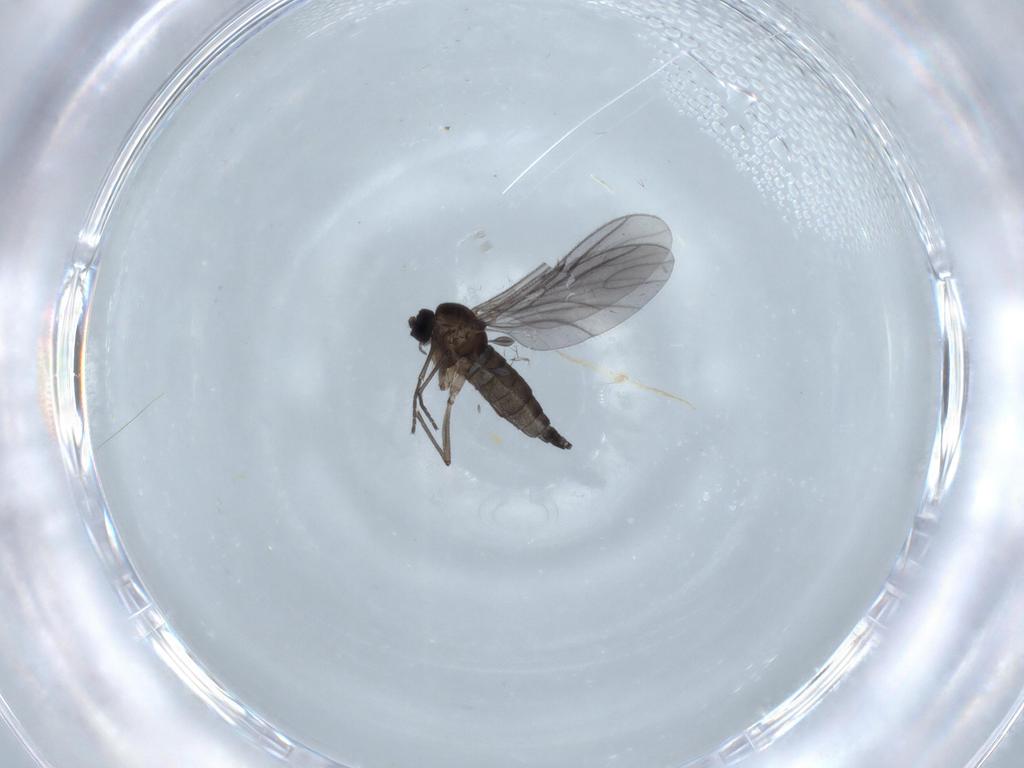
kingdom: Animalia
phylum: Arthropoda
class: Insecta
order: Diptera
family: Sciaridae
